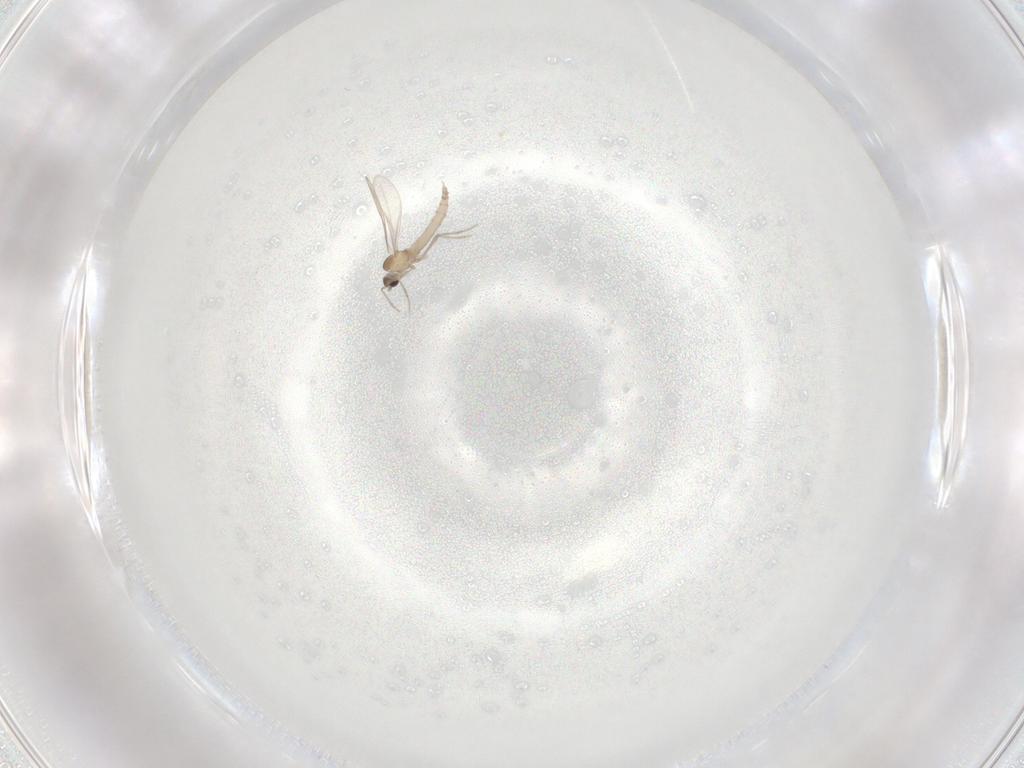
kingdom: Animalia
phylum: Arthropoda
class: Insecta
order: Diptera
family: Cecidomyiidae
